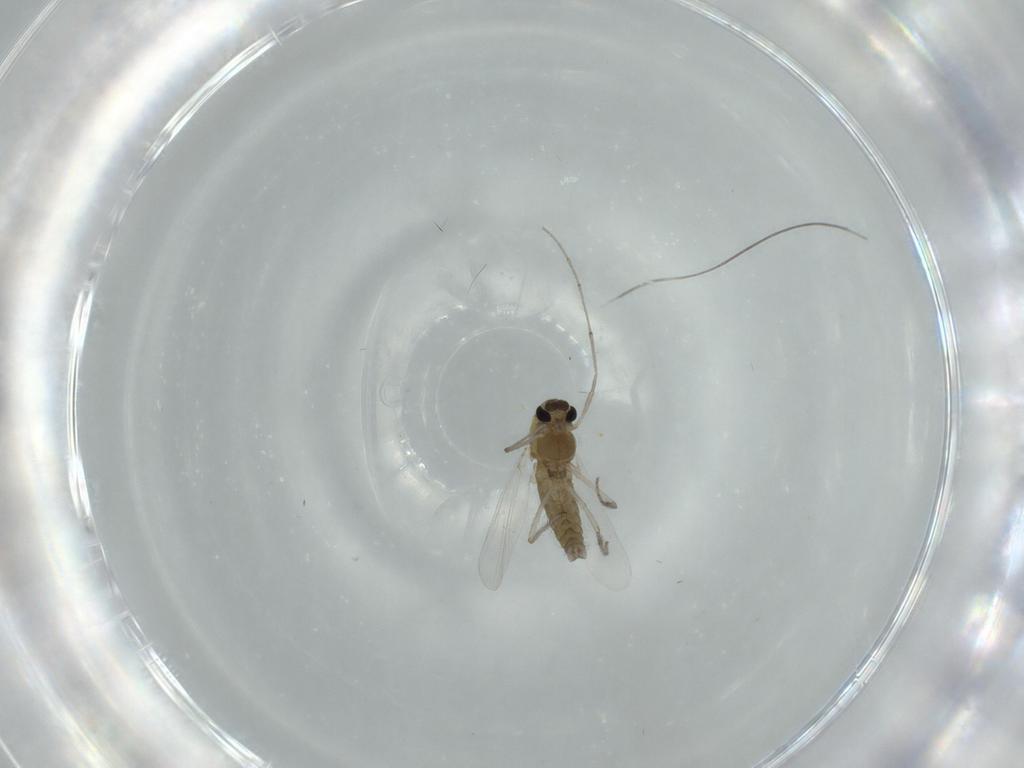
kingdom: Animalia
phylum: Arthropoda
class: Insecta
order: Diptera
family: Chironomidae
